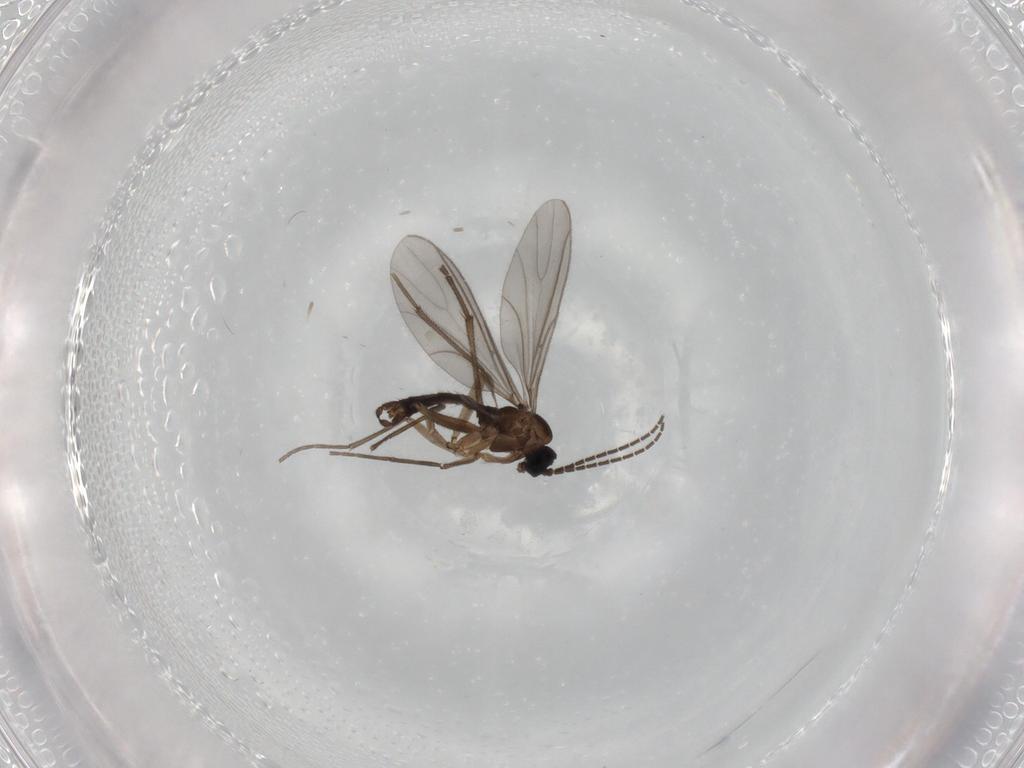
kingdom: Animalia
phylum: Arthropoda
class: Insecta
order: Diptera
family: Sciaridae
